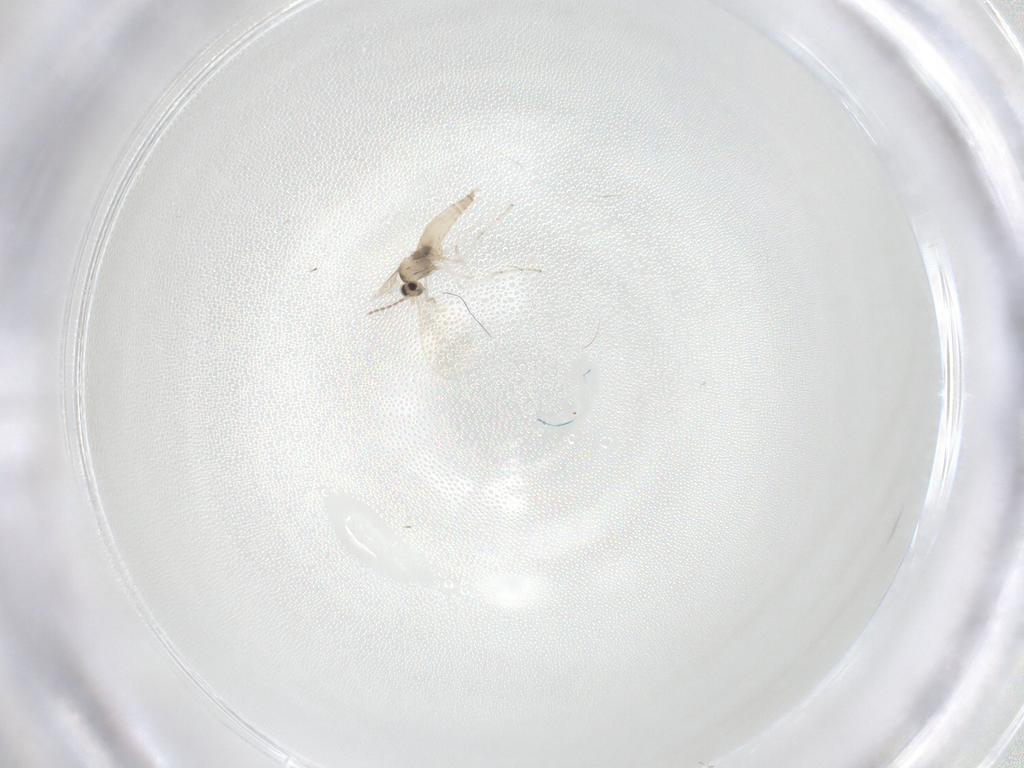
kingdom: Animalia
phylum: Arthropoda
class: Insecta
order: Diptera
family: Cecidomyiidae
